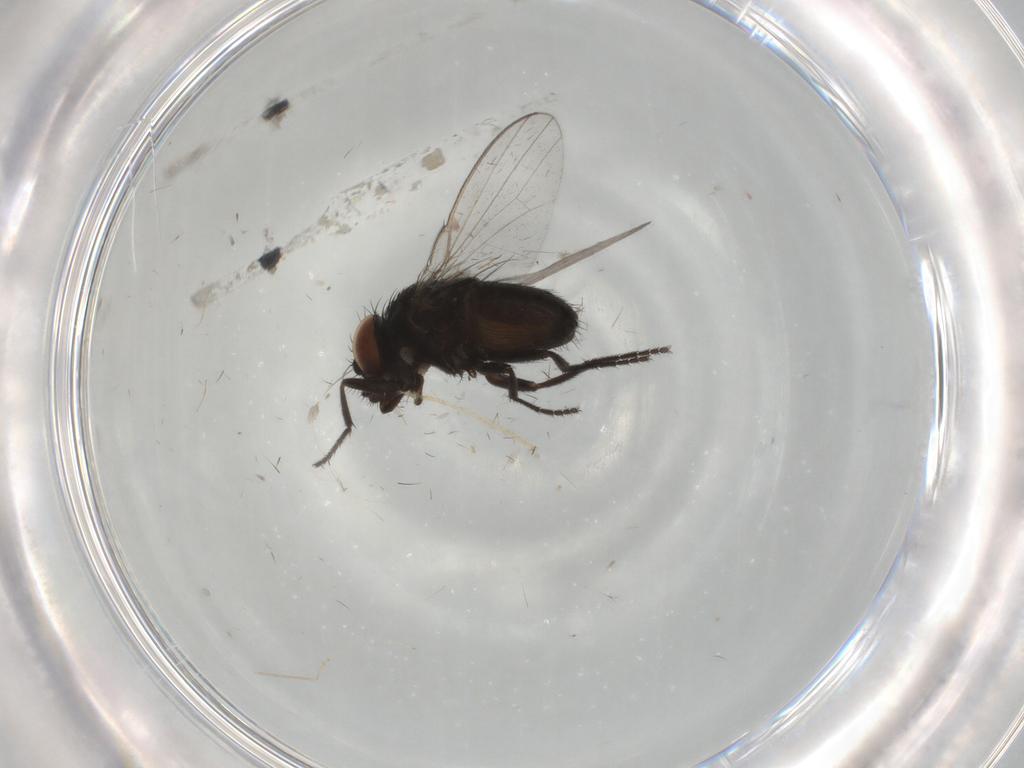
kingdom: Animalia
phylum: Arthropoda
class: Insecta
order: Diptera
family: Milichiidae
